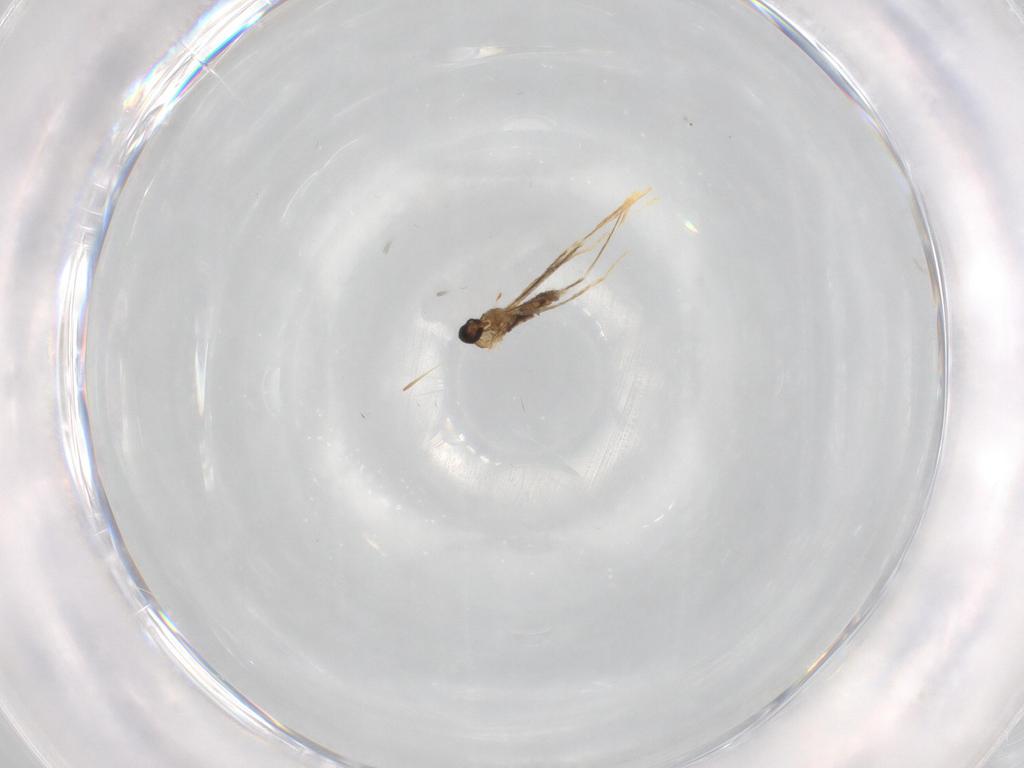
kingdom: Animalia
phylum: Arthropoda
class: Insecta
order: Diptera
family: Cecidomyiidae
